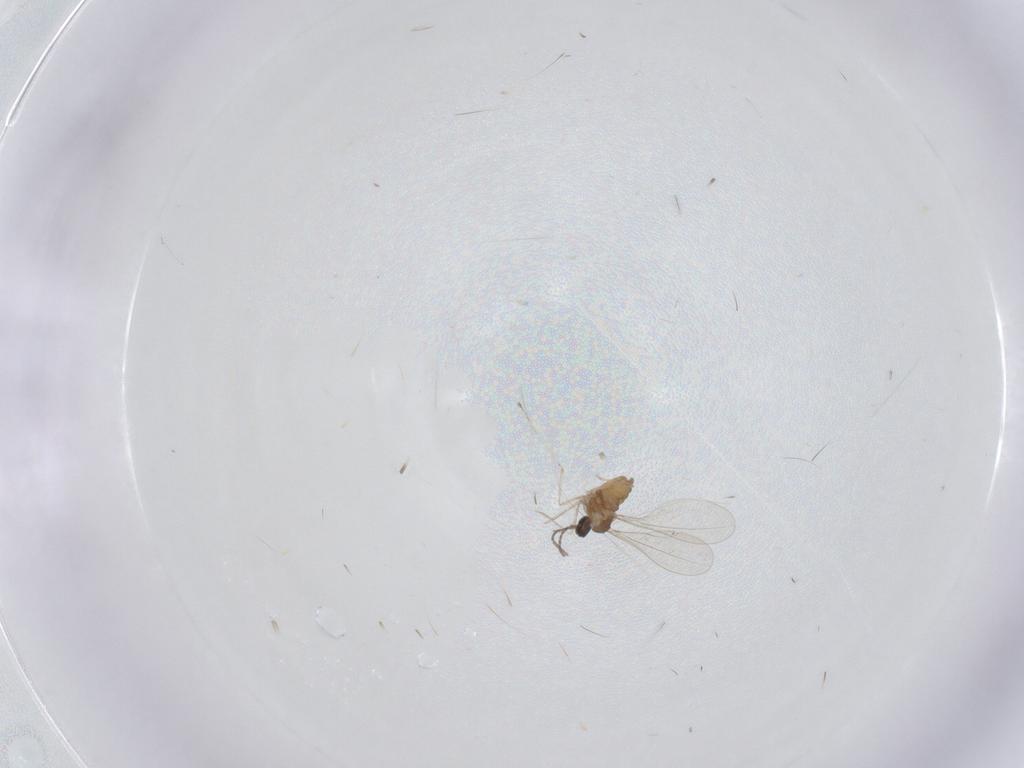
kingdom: Animalia
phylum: Arthropoda
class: Insecta
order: Diptera
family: Cecidomyiidae
